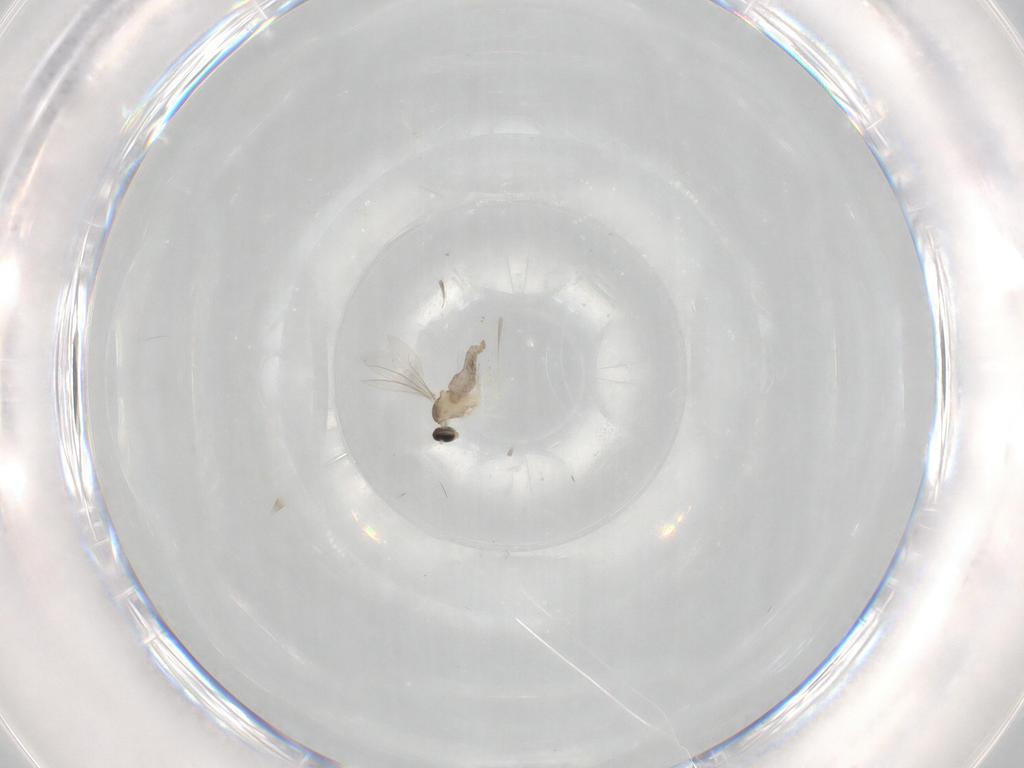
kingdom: Animalia
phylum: Arthropoda
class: Insecta
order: Diptera
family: Cecidomyiidae
